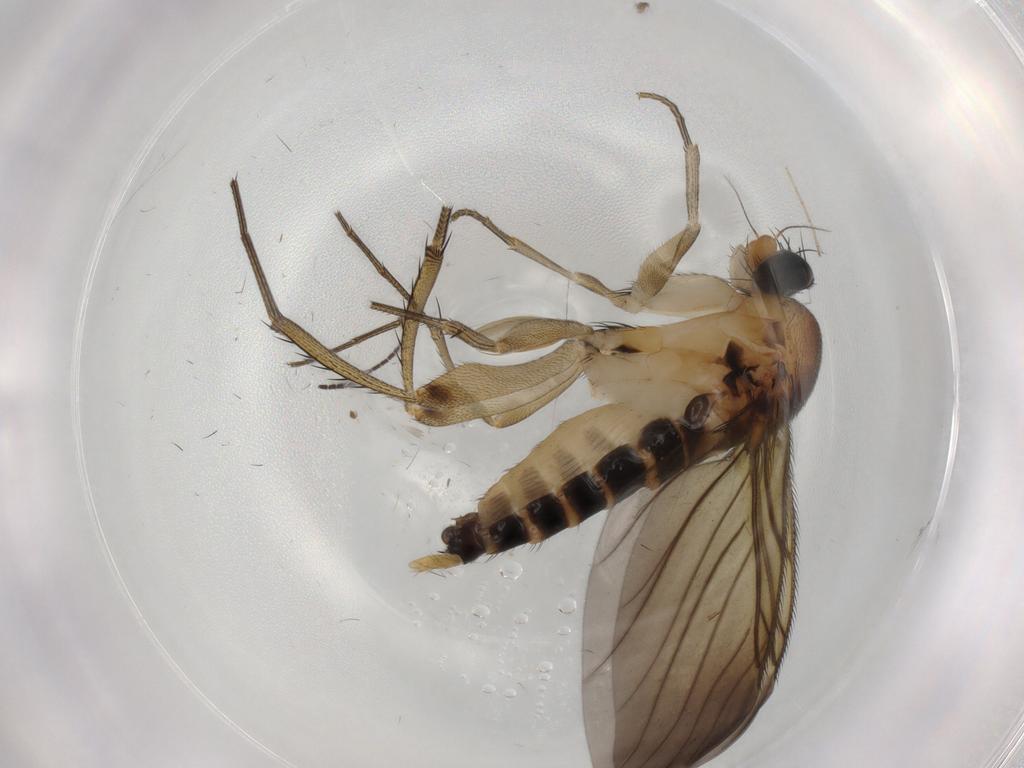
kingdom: Animalia
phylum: Arthropoda
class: Insecta
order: Diptera
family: Phoridae
